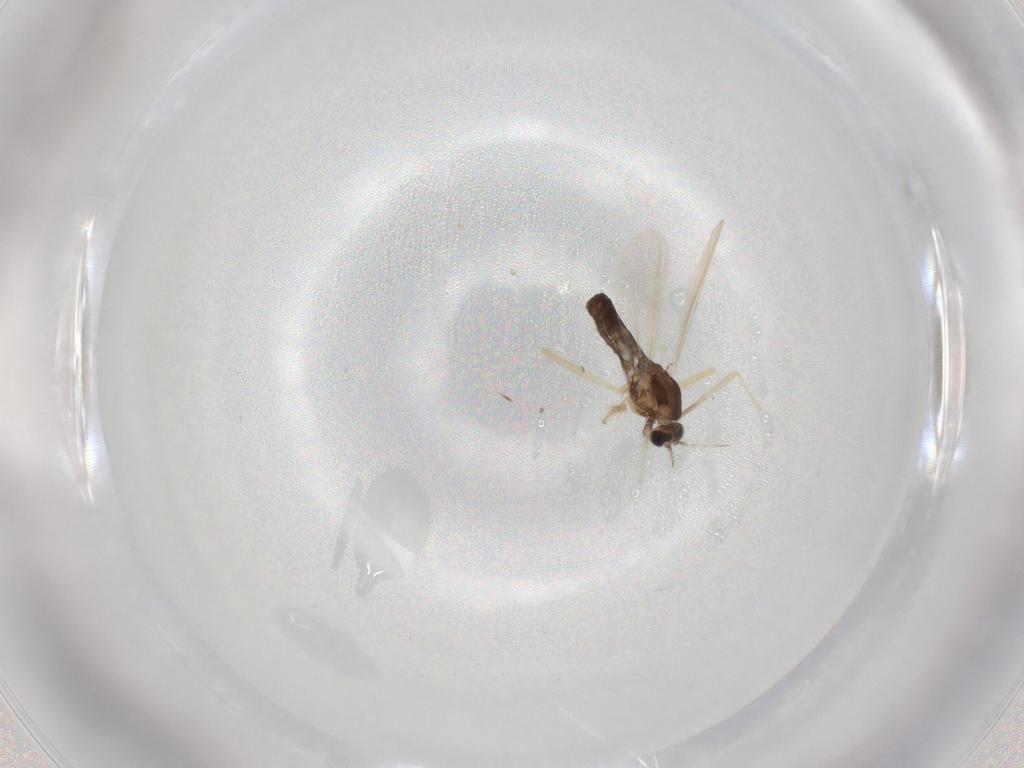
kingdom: Animalia
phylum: Arthropoda
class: Insecta
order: Diptera
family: Chironomidae
